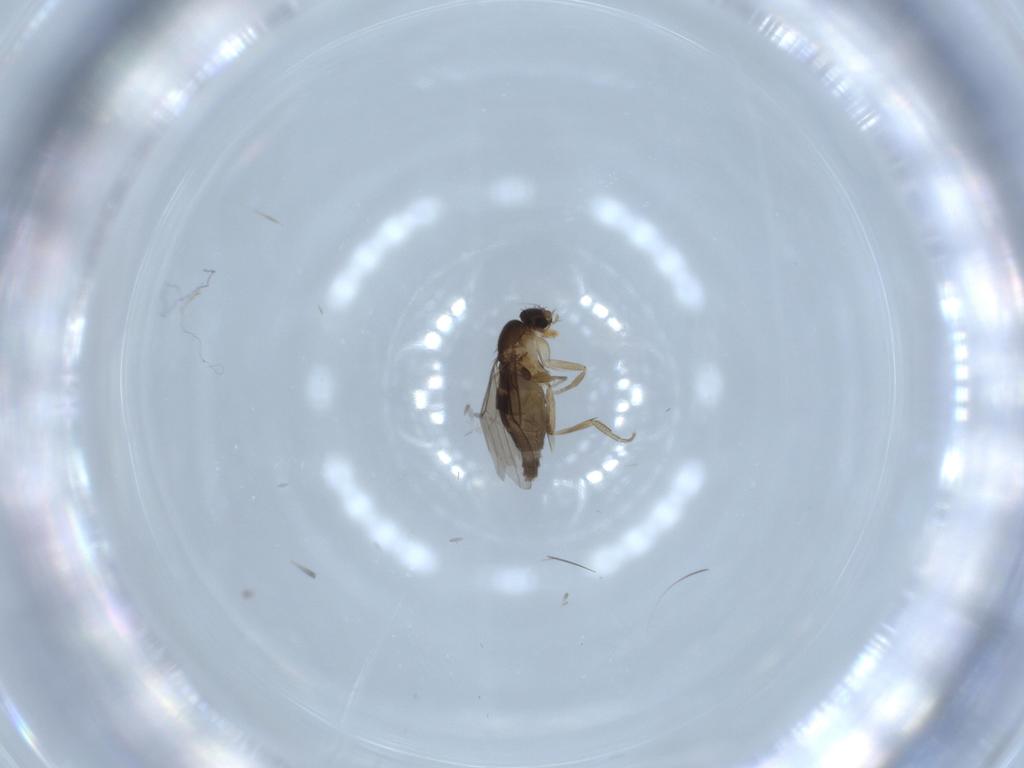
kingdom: Animalia
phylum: Arthropoda
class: Insecta
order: Diptera
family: Phoridae
